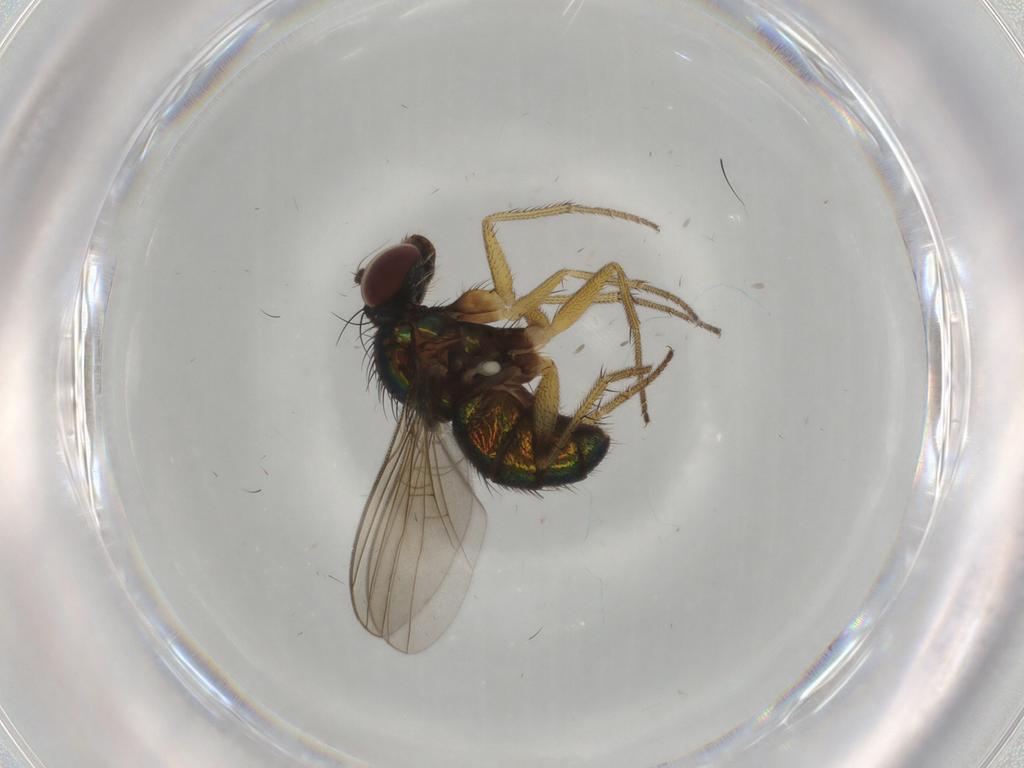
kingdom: Animalia
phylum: Arthropoda
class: Insecta
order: Diptera
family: Dolichopodidae
